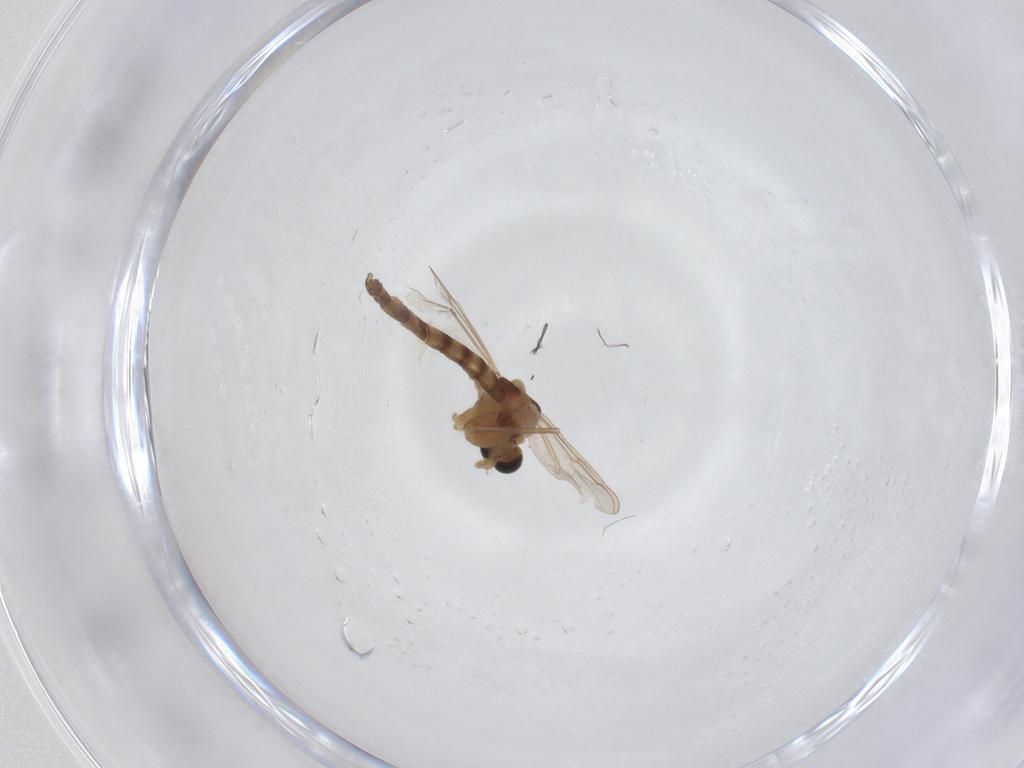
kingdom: Animalia
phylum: Arthropoda
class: Insecta
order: Diptera
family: Chironomidae
